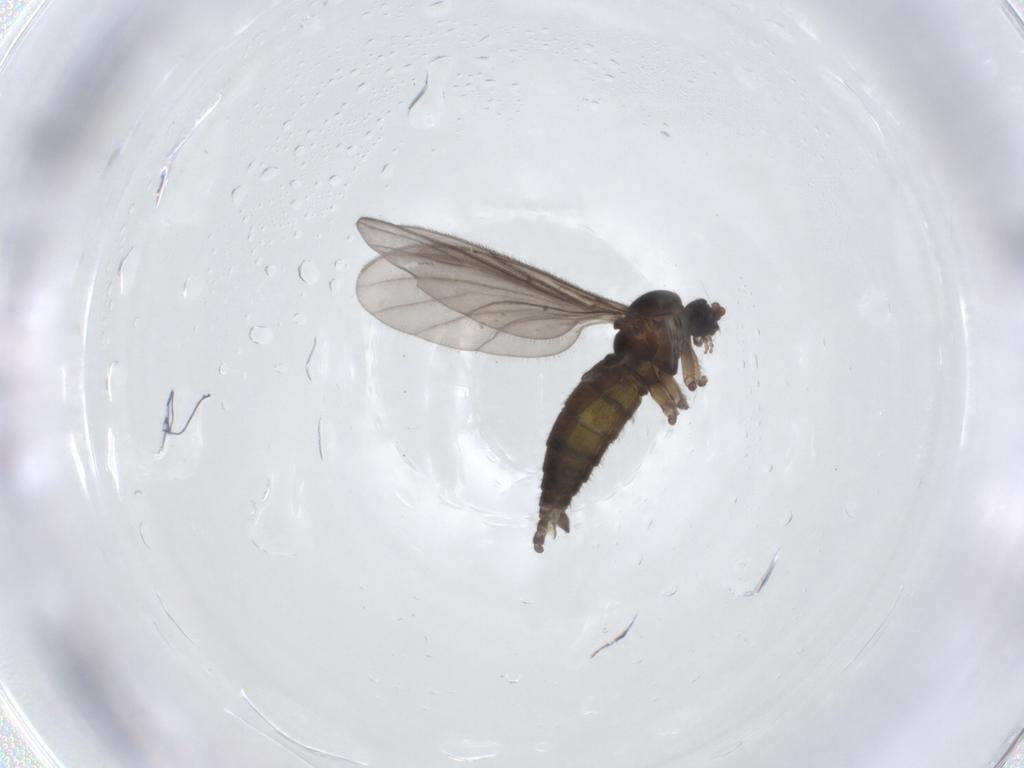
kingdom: Animalia
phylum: Arthropoda
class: Insecta
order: Diptera
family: Sciaridae
